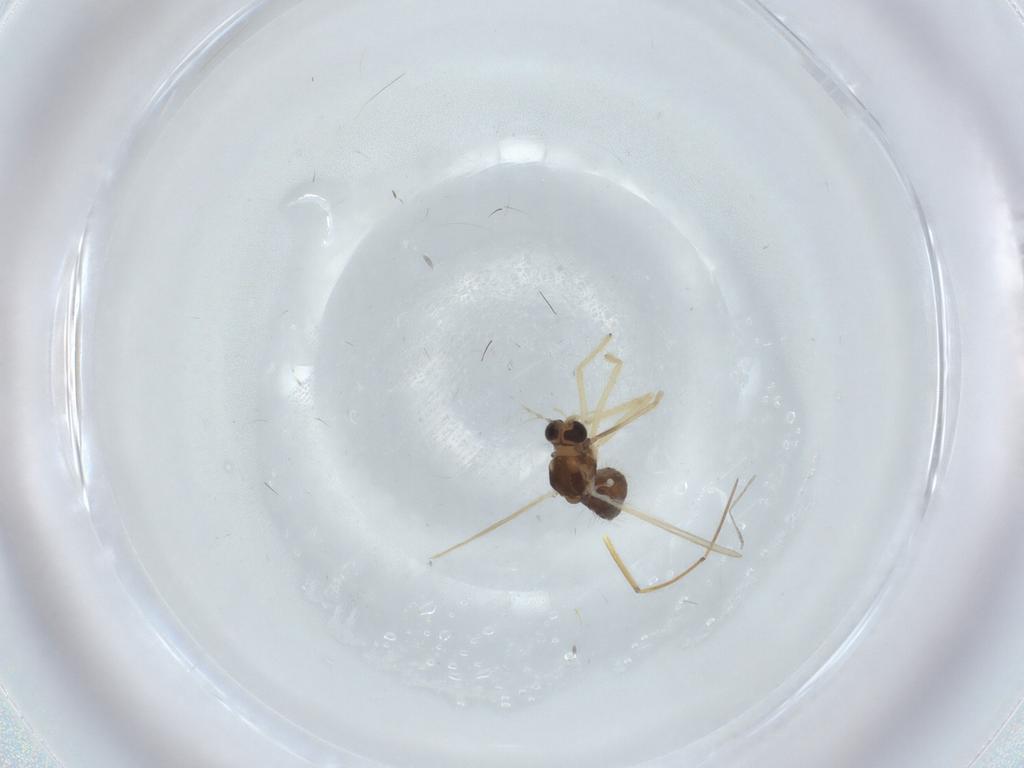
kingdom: Animalia
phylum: Arthropoda
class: Insecta
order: Diptera
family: Chironomidae
